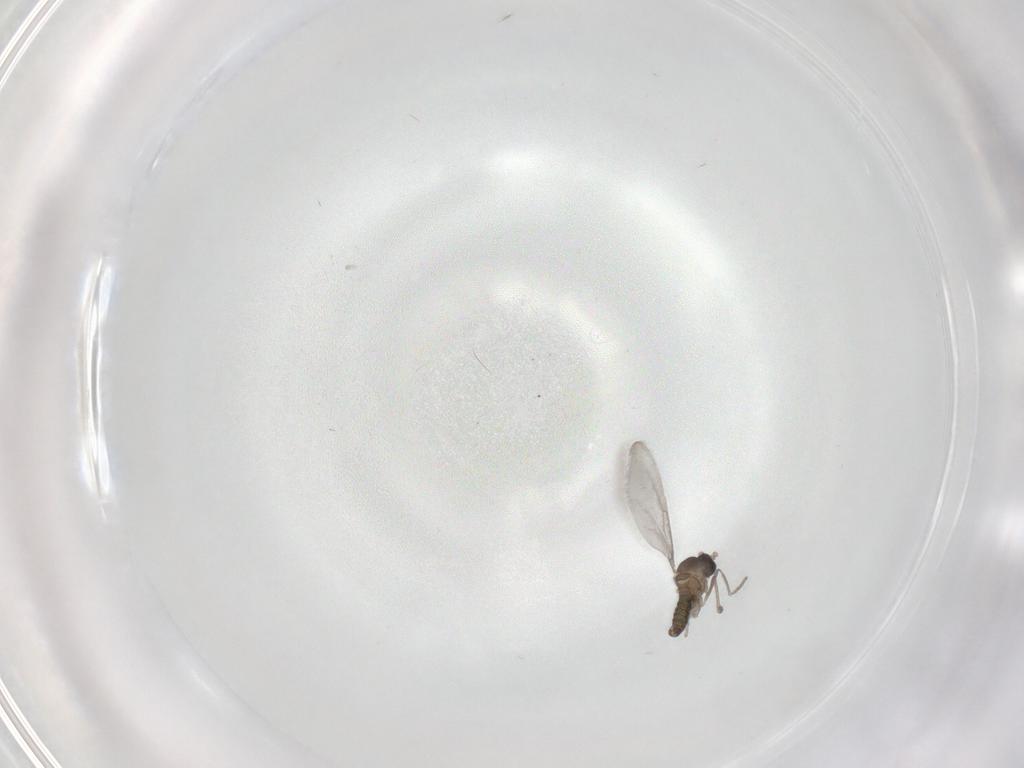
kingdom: Animalia
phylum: Arthropoda
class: Insecta
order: Diptera
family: Cecidomyiidae
